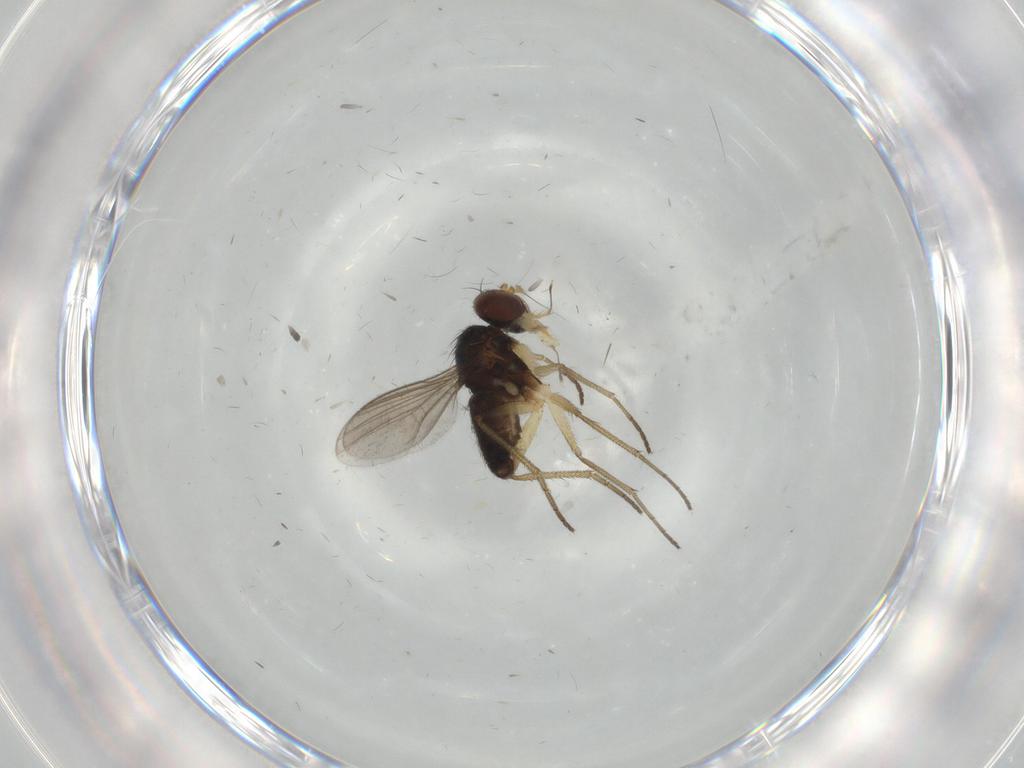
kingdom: Animalia
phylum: Arthropoda
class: Insecta
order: Diptera
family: Dolichopodidae
